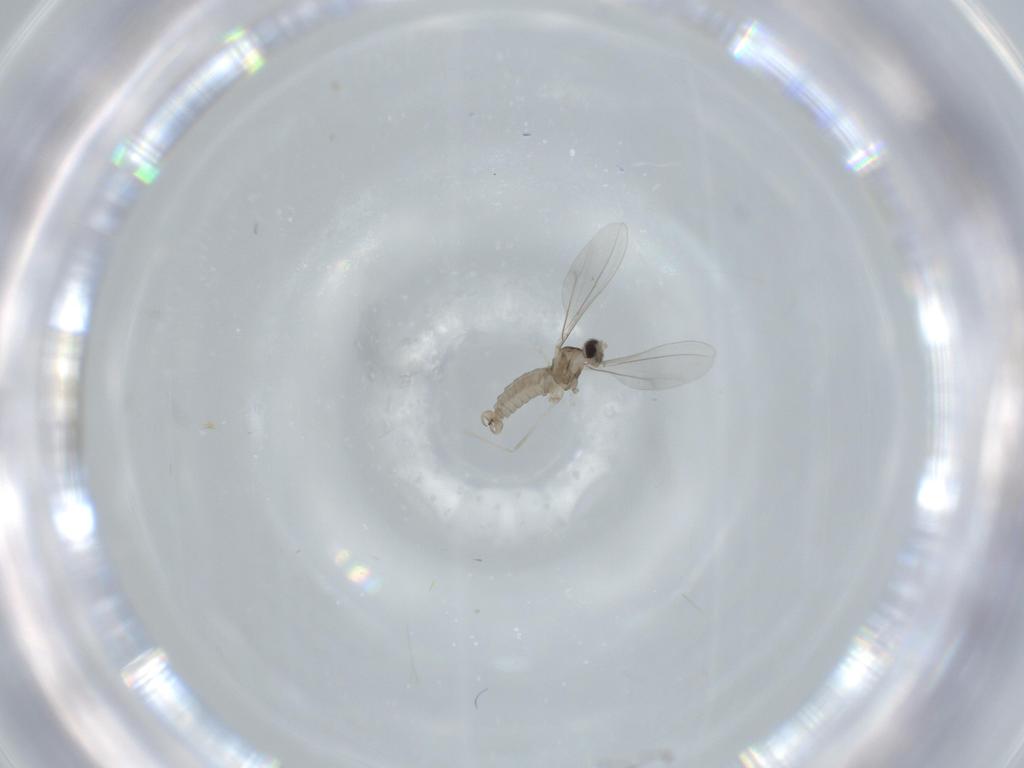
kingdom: Animalia
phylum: Arthropoda
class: Insecta
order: Diptera
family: Cecidomyiidae
